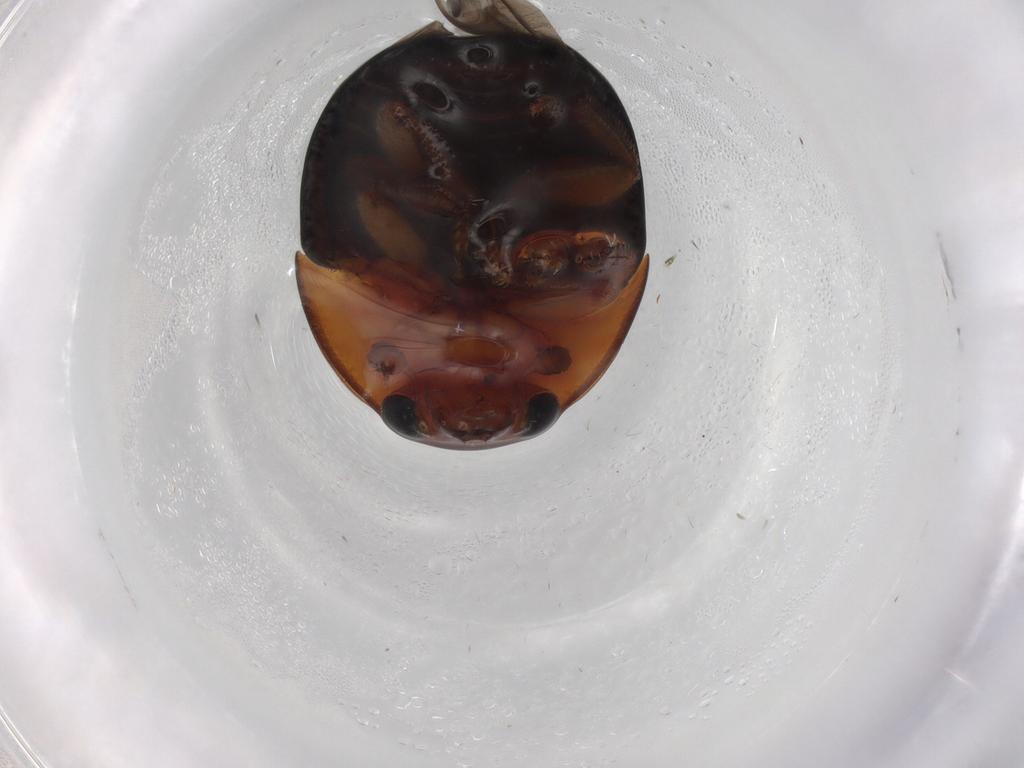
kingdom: Animalia
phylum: Arthropoda
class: Insecta
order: Coleoptera
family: Nitidulidae
